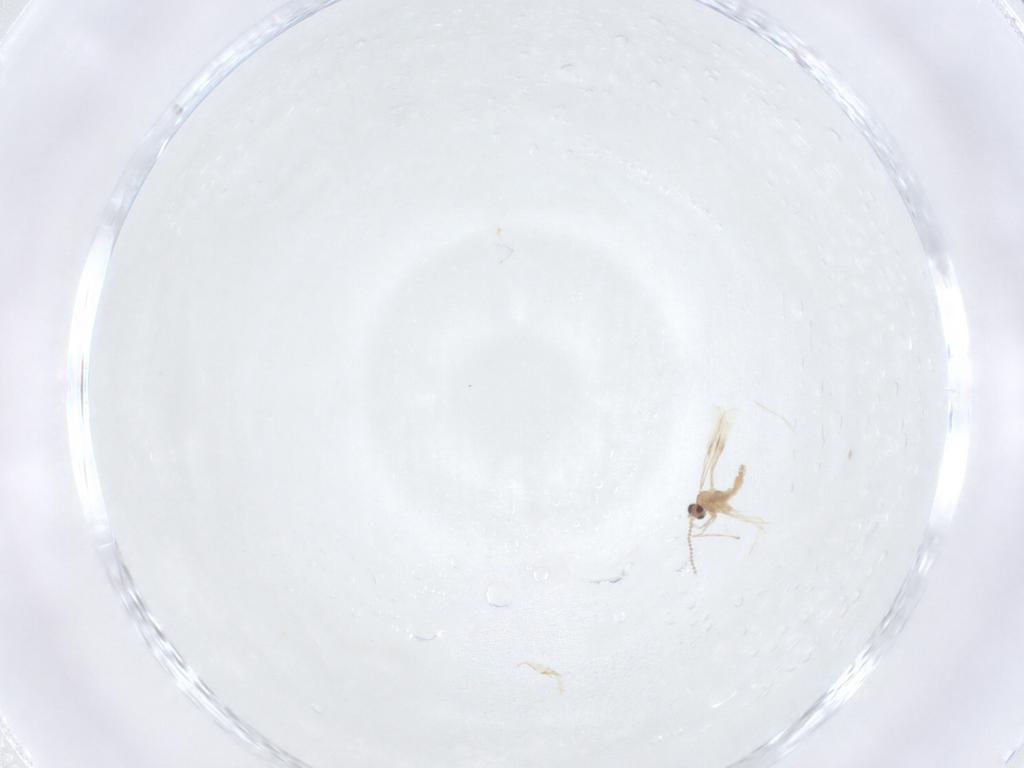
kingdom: Animalia
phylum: Arthropoda
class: Insecta
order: Diptera
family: Cecidomyiidae
